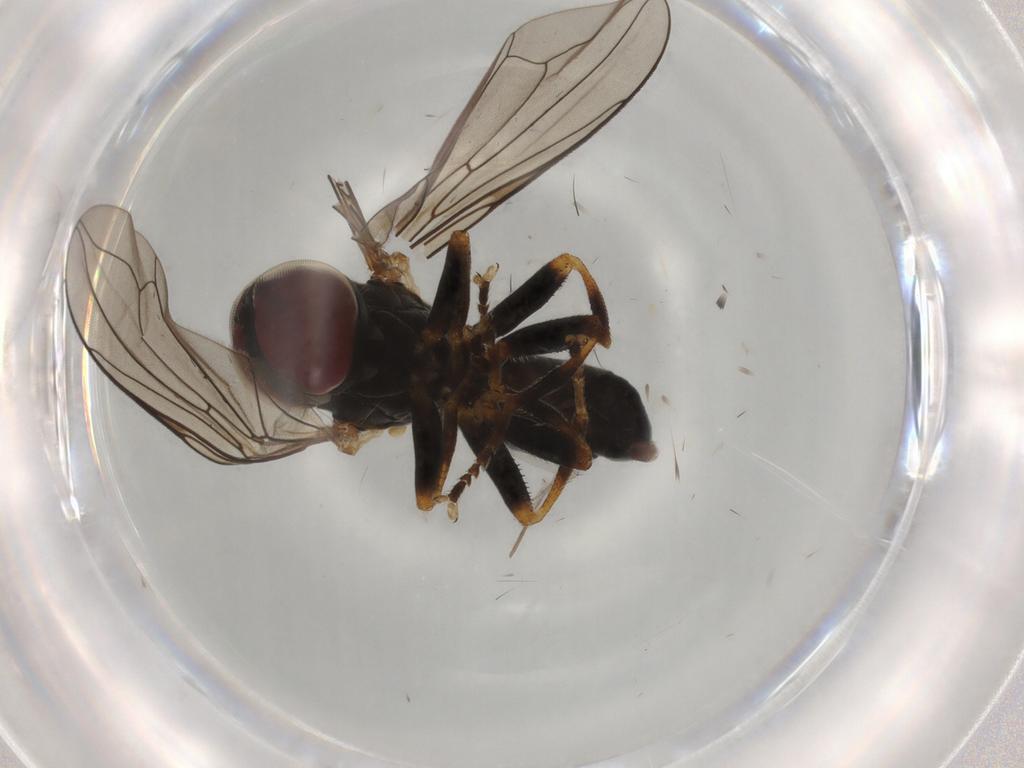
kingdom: Animalia
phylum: Arthropoda
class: Insecta
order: Diptera
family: Pipunculidae
